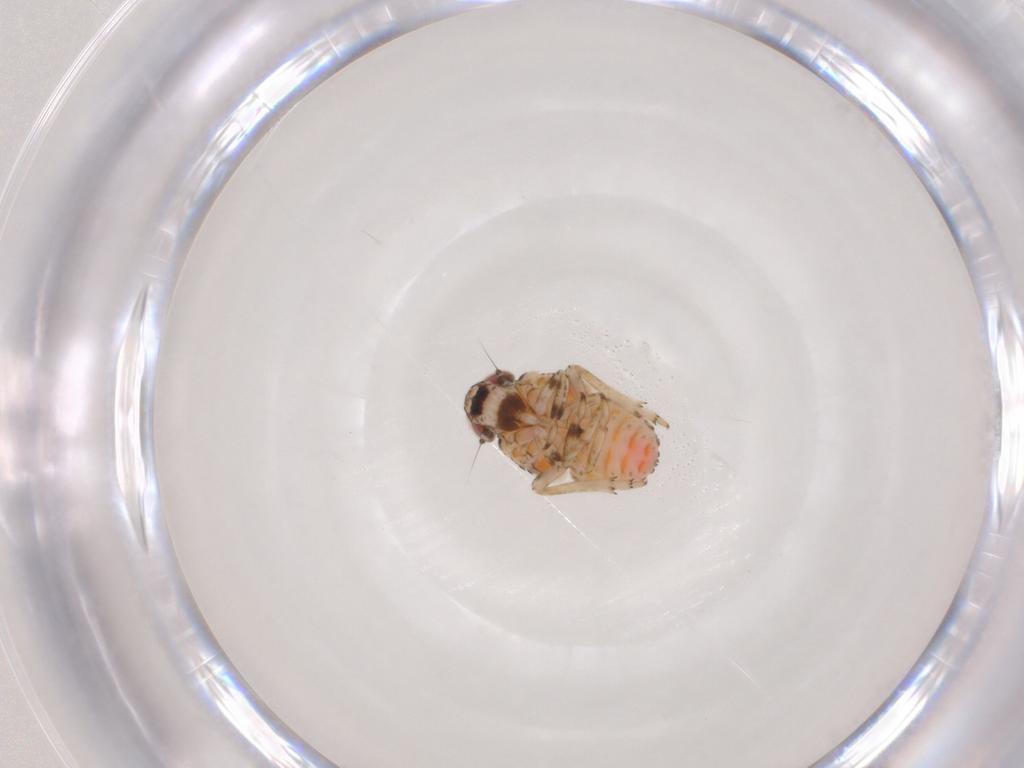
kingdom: Animalia
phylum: Arthropoda
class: Insecta
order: Hemiptera
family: Issidae
